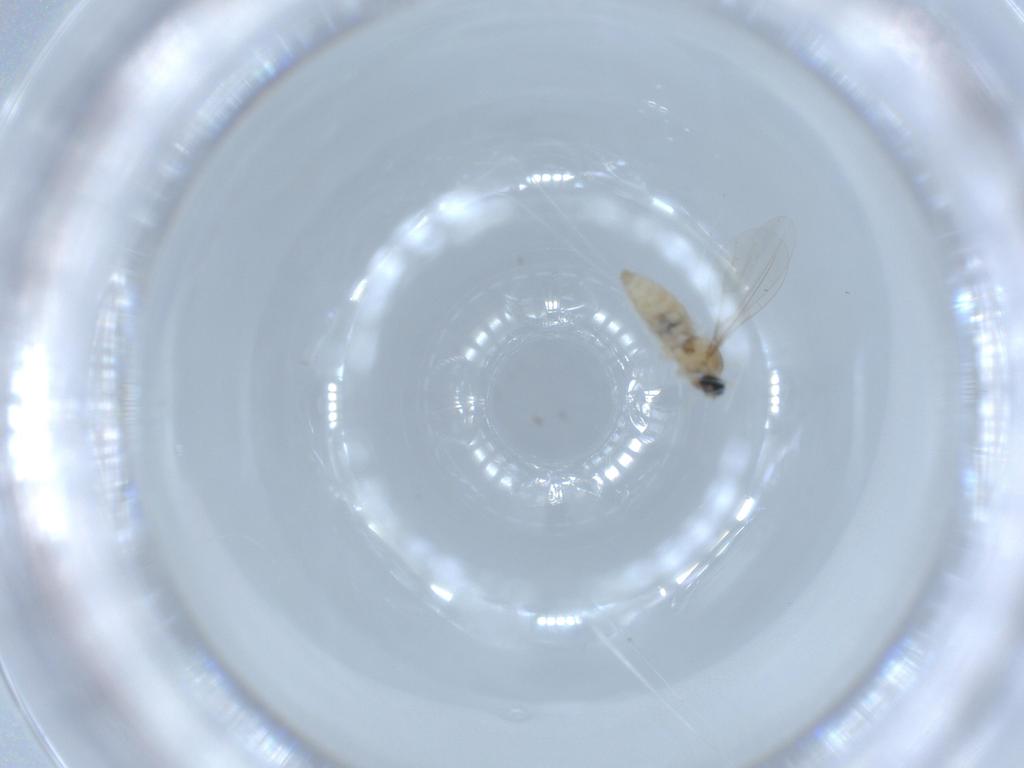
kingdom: Animalia
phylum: Arthropoda
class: Insecta
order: Diptera
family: Cecidomyiidae
